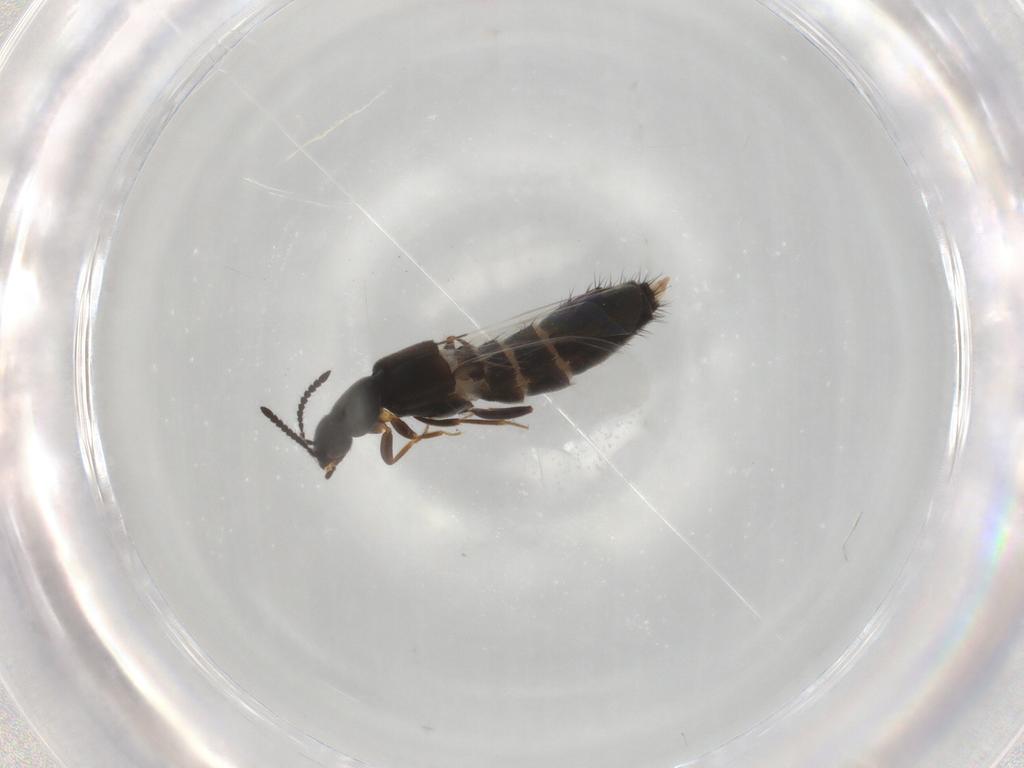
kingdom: Animalia
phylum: Arthropoda
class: Insecta
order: Coleoptera
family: Staphylinidae
